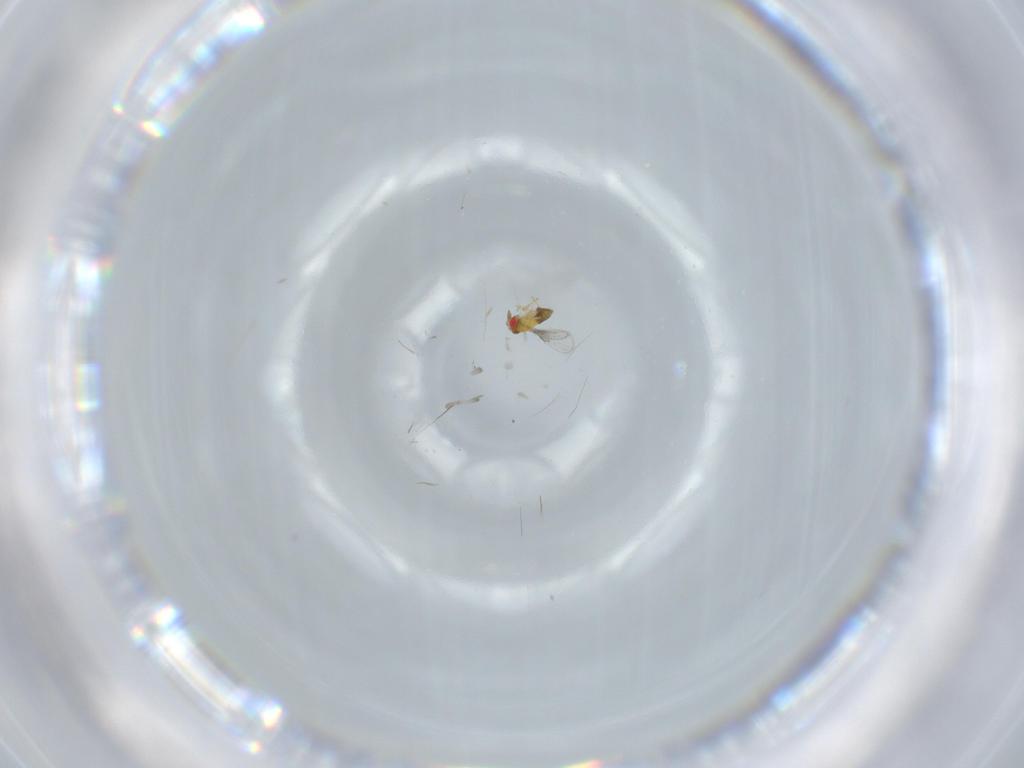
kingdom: Animalia
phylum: Arthropoda
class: Insecta
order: Hymenoptera
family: Trichogrammatidae
